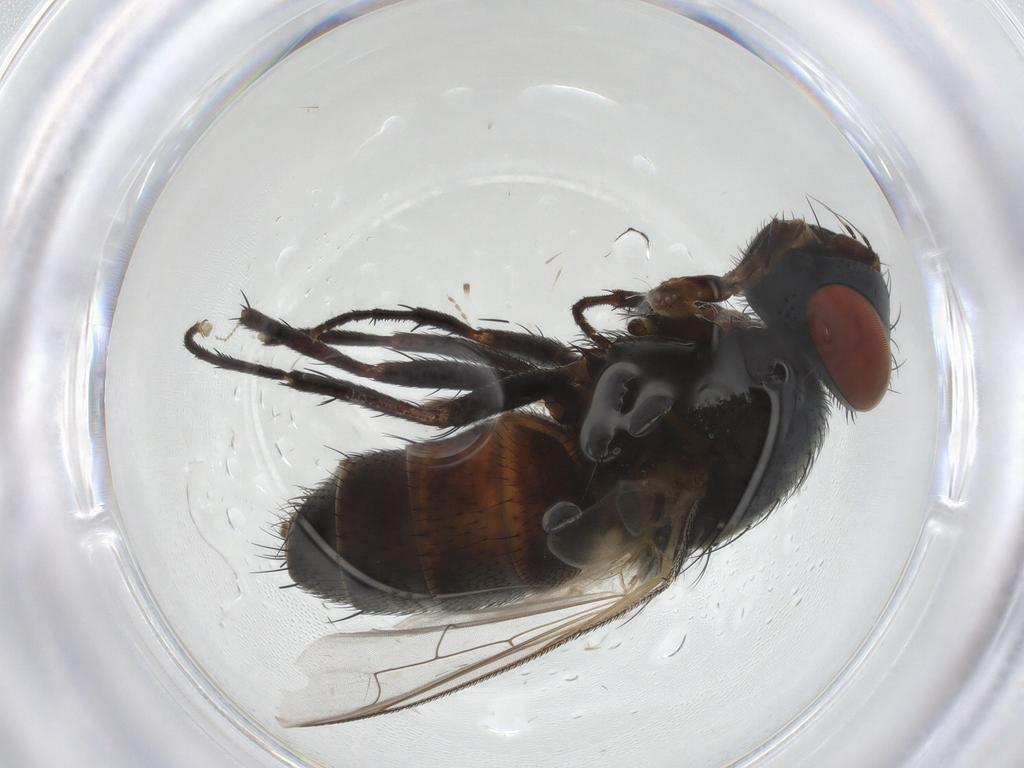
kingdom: Animalia
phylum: Arthropoda
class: Insecta
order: Diptera
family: Sarcophagidae
